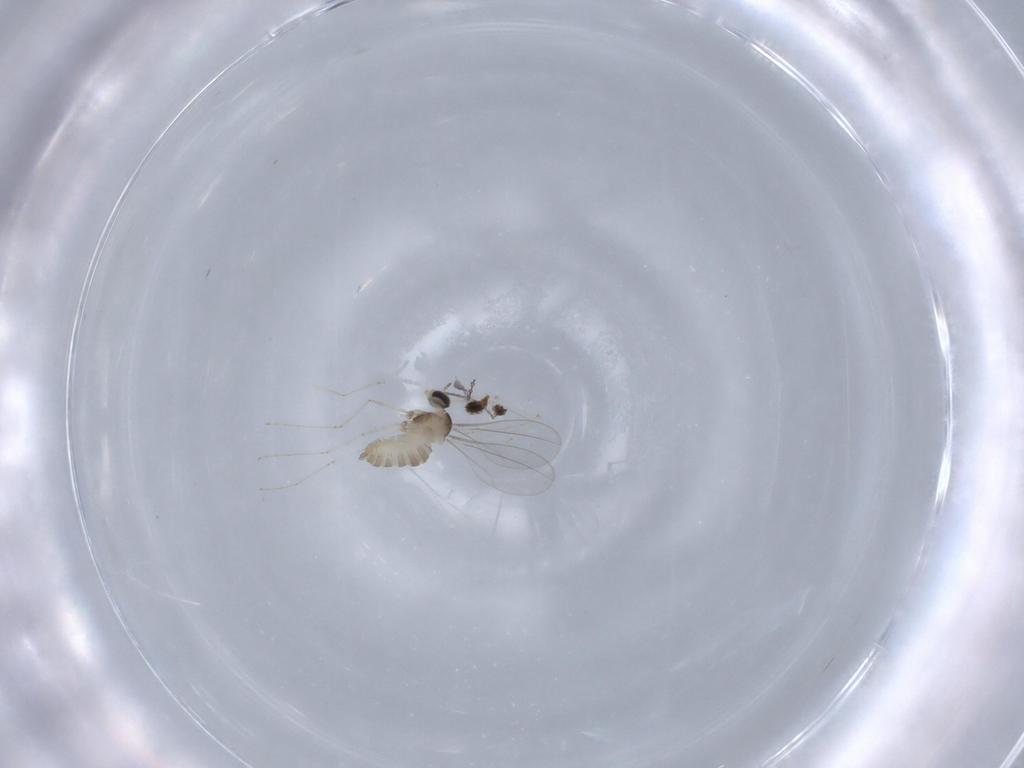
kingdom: Animalia
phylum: Arthropoda
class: Insecta
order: Diptera
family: Cecidomyiidae
